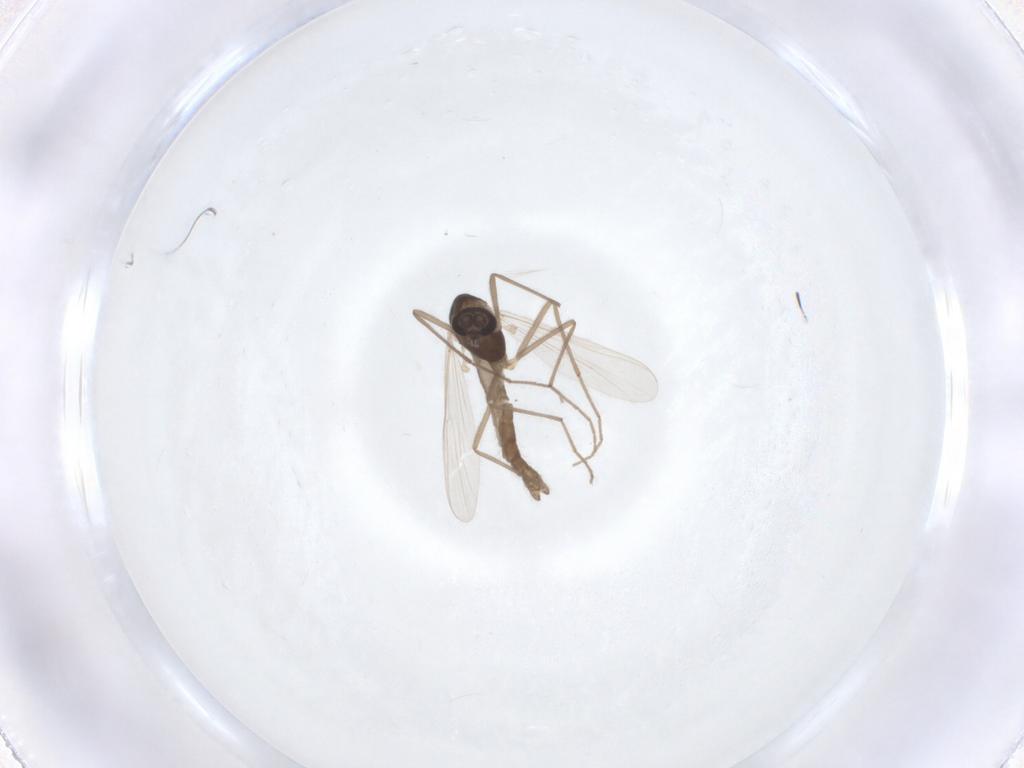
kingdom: Animalia
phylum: Arthropoda
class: Insecta
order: Diptera
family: Chironomidae
